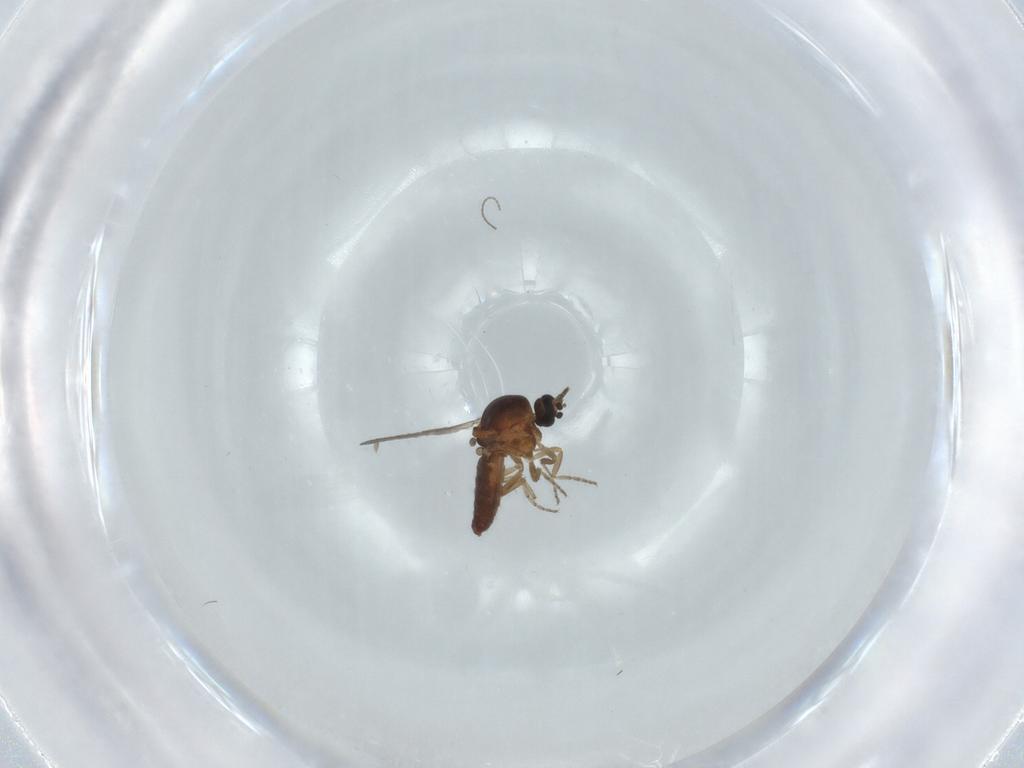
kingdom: Animalia
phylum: Arthropoda
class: Insecta
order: Diptera
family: Ceratopogonidae
